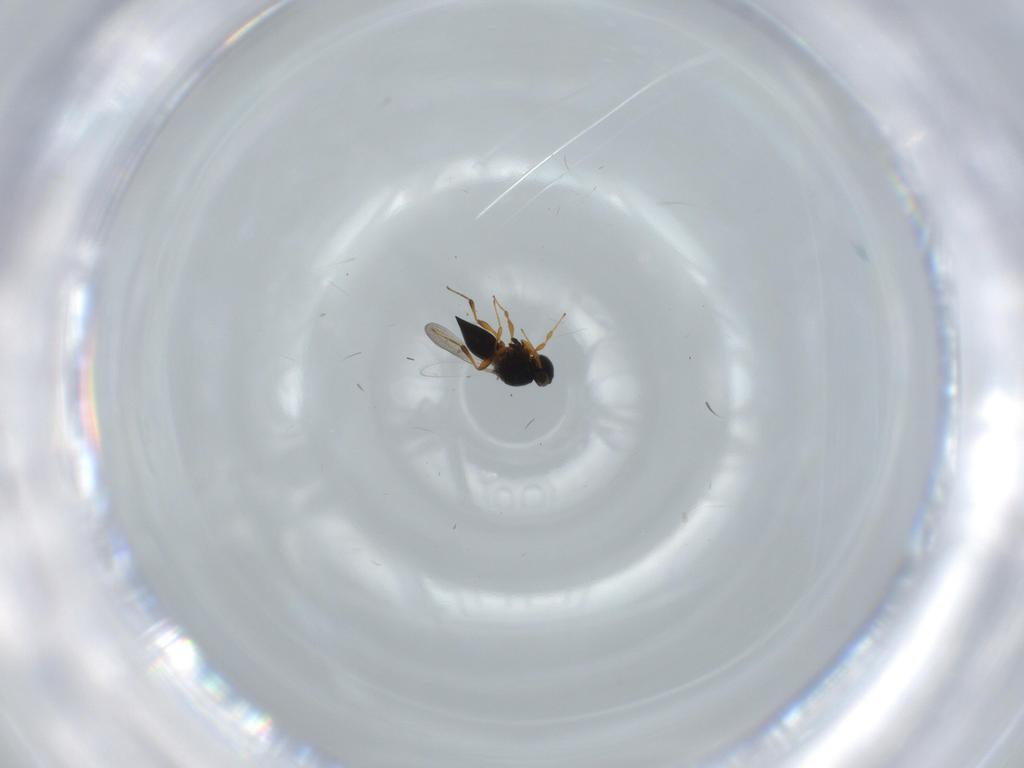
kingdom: Animalia
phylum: Arthropoda
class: Insecta
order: Hymenoptera
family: Platygastridae
